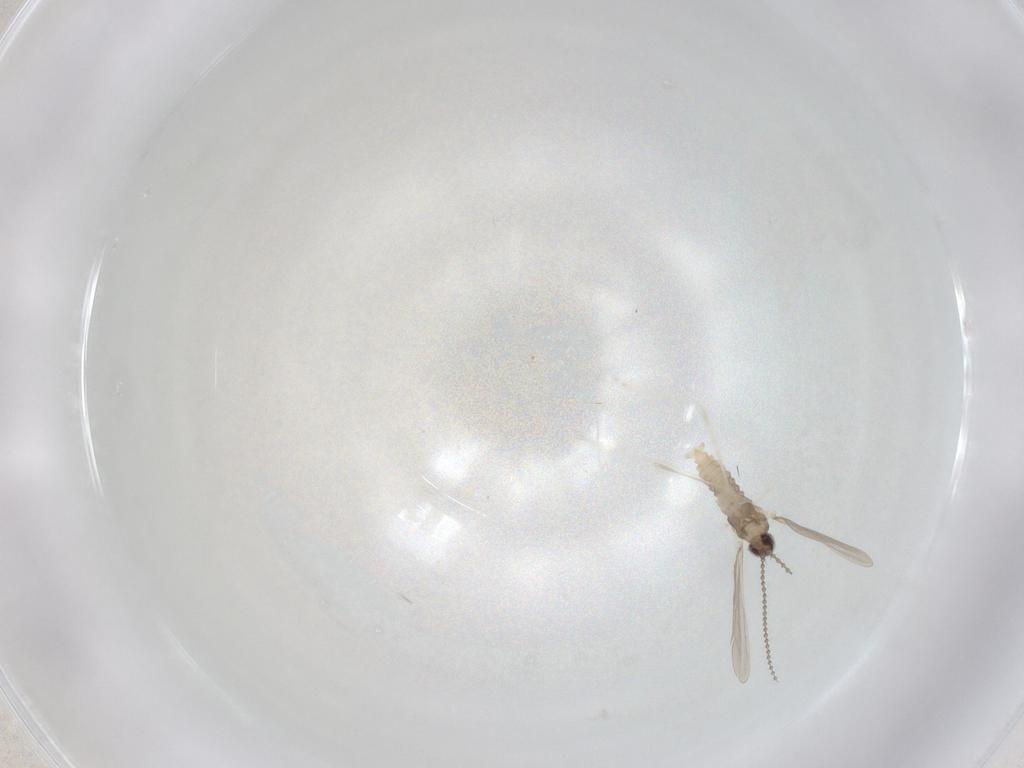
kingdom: Animalia
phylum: Arthropoda
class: Insecta
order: Diptera
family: Cecidomyiidae
